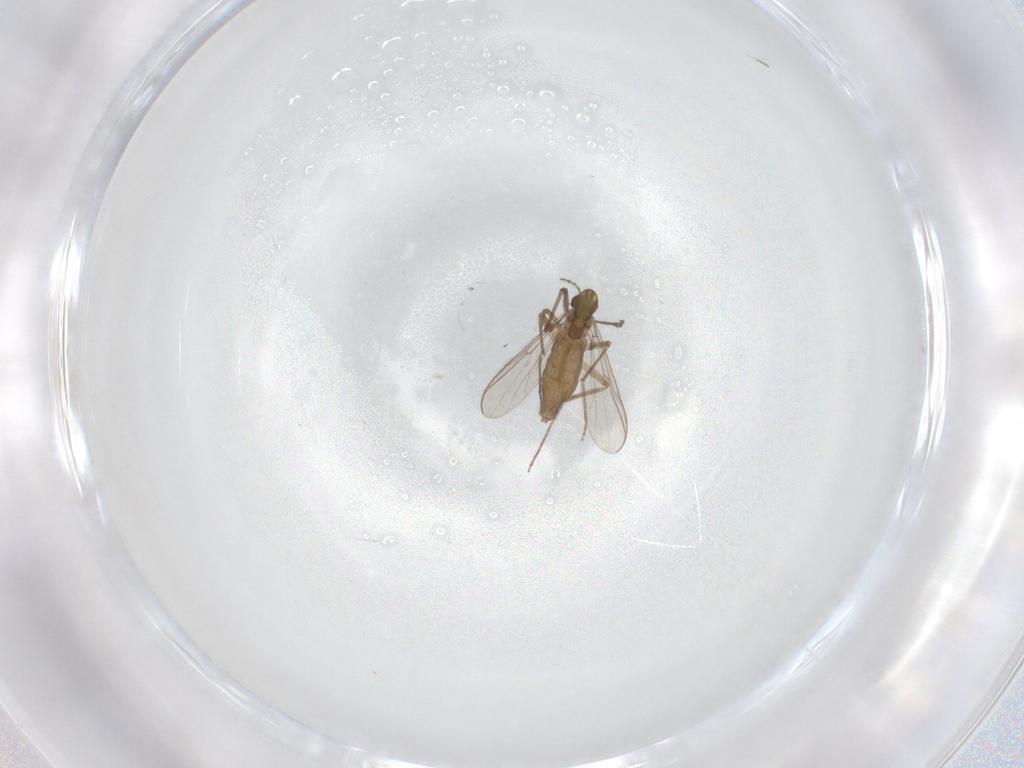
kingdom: Animalia
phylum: Arthropoda
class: Insecta
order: Diptera
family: Chironomidae
